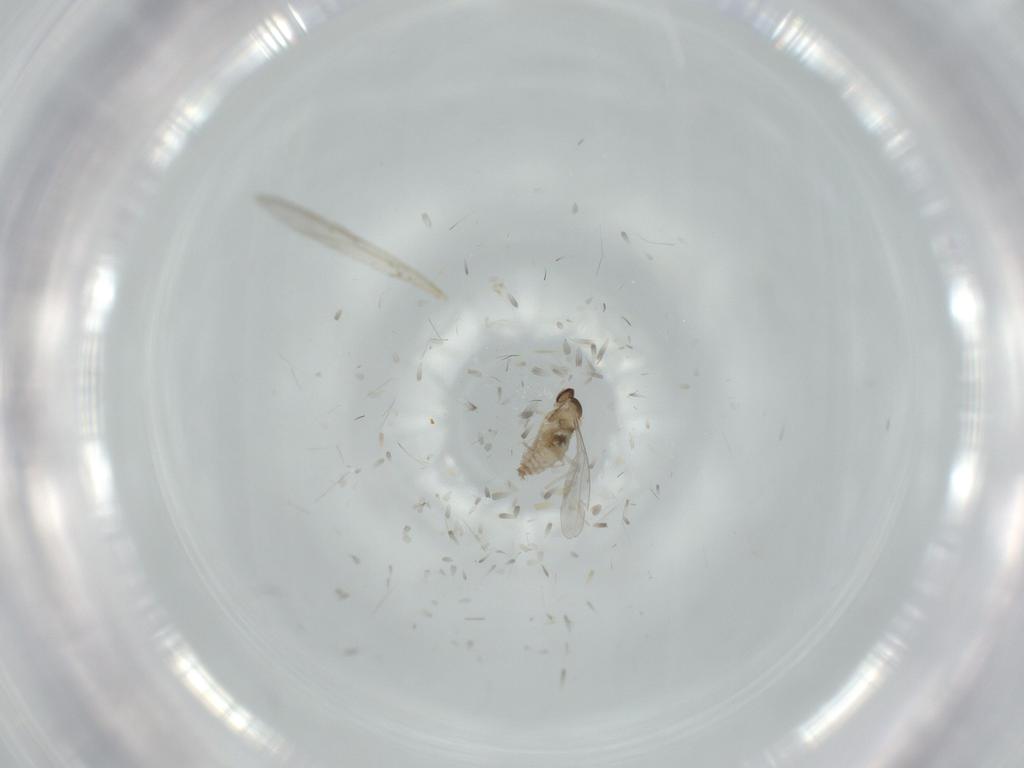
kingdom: Animalia
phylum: Arthropoda
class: Insecta
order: Diptera
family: Cecidomyiidae
